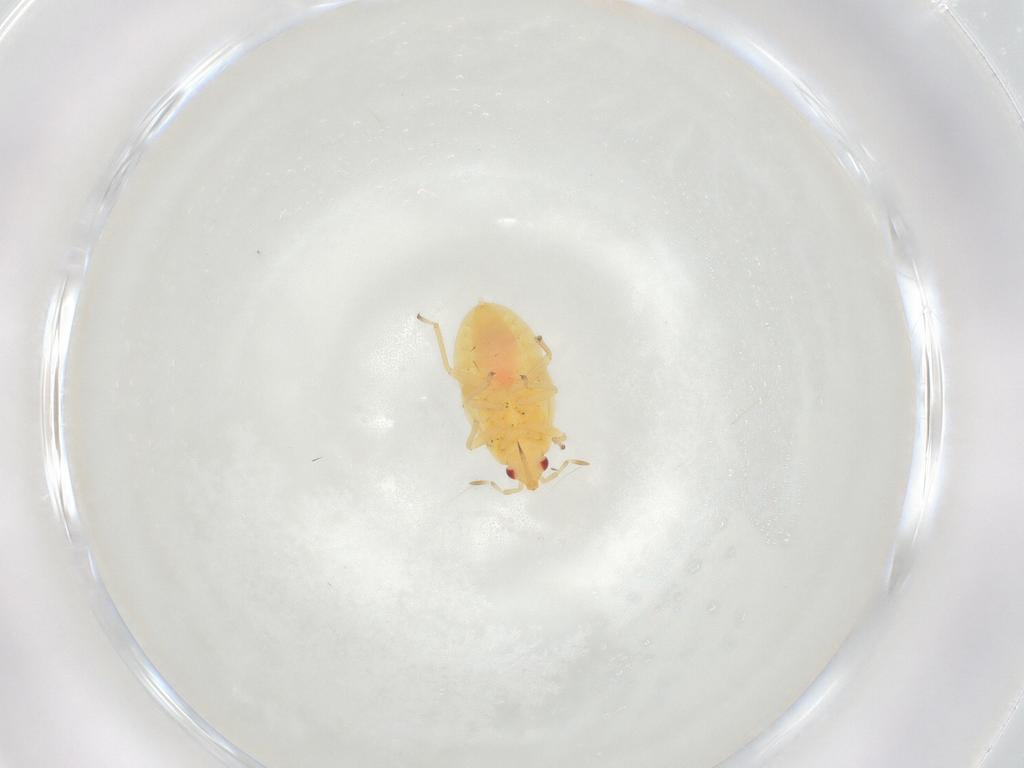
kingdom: Animalia
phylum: Arthropoda
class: Insecta
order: Hemiptera
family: Anthocoridae
